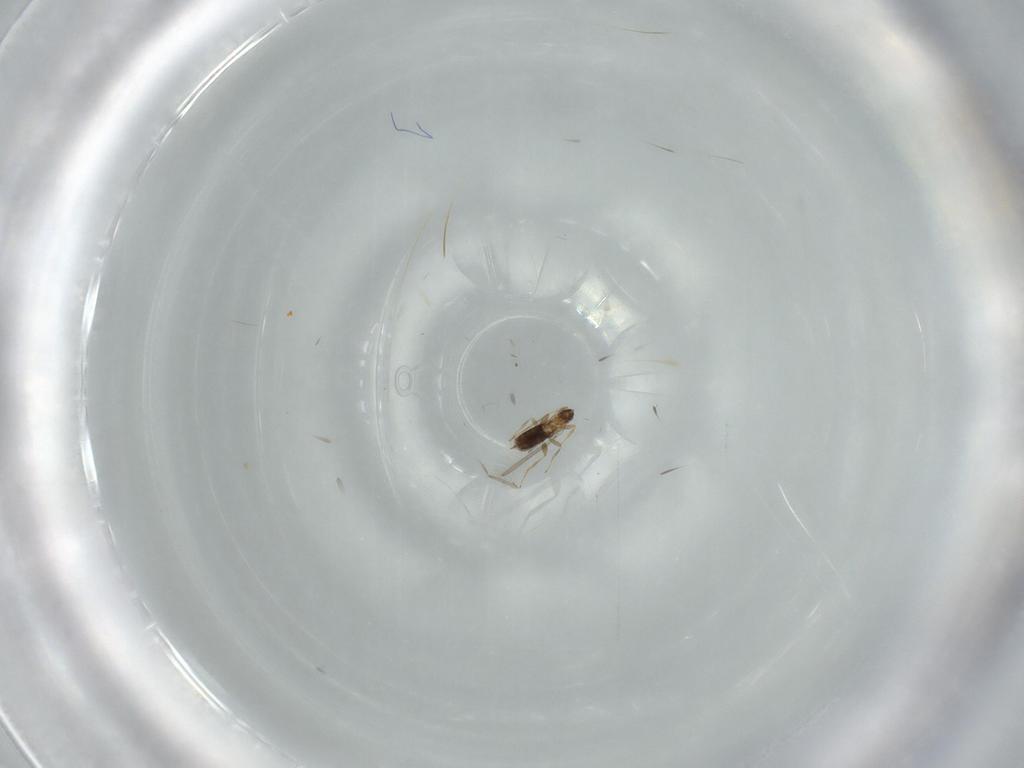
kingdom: Animalia
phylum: Arthropoda
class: Insecta
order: Hymenoptera
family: Mymaridae
